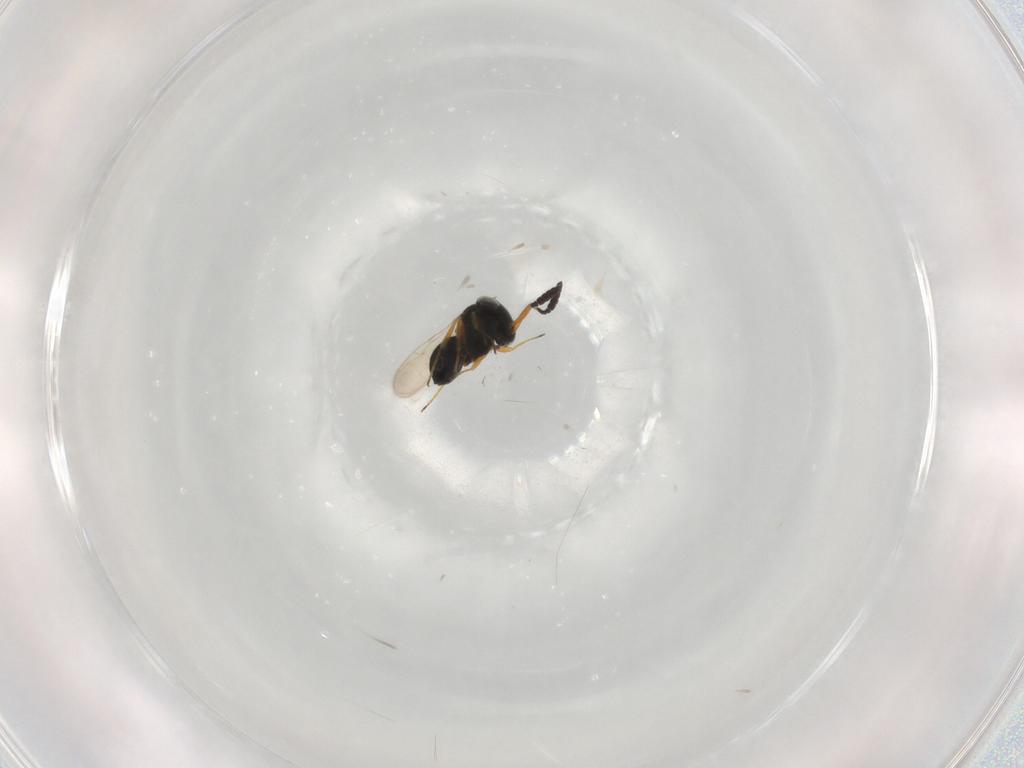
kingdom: Animalia
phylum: Arthropoda
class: Insecta
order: Hymenoptera
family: Scelionidae
